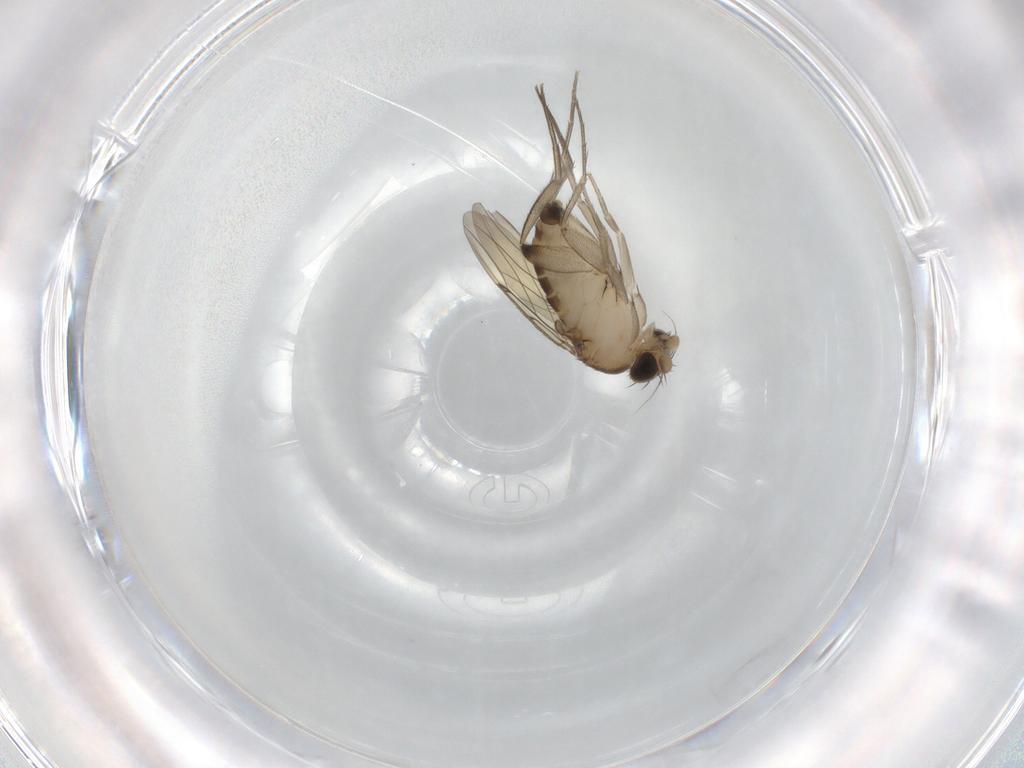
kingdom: Animalia
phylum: Arthropoda
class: Insecta
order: Diptera
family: Phoridae
